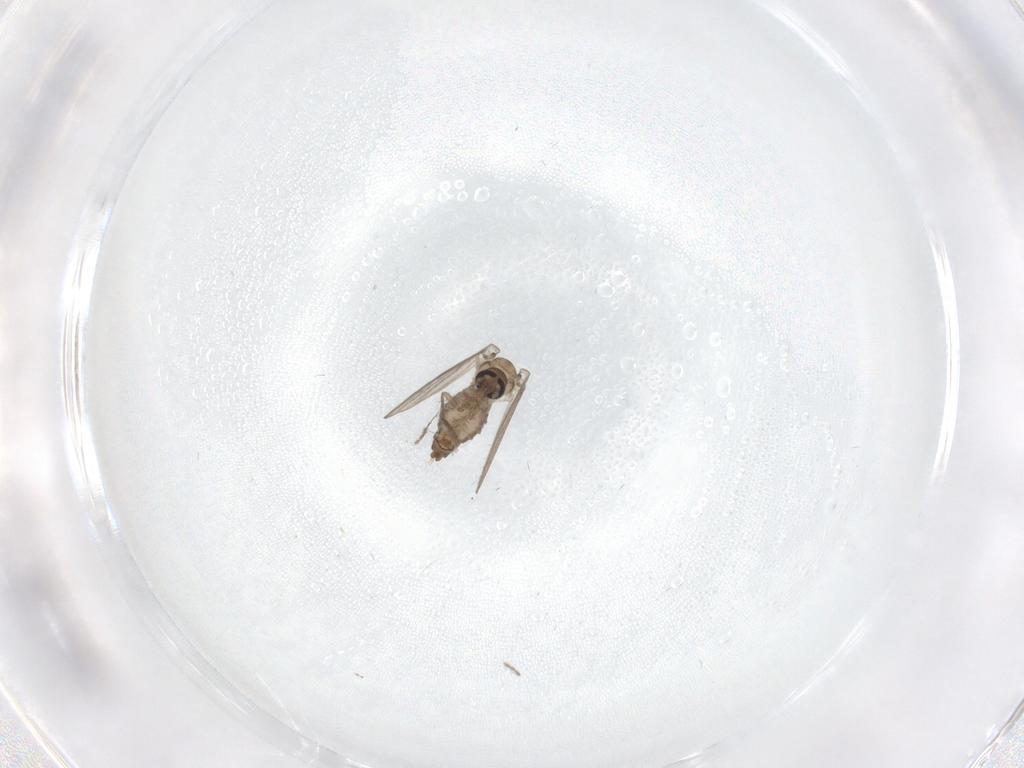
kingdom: Animalia
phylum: Arthropoda
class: Insecta
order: Diptera
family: Psychodidae
